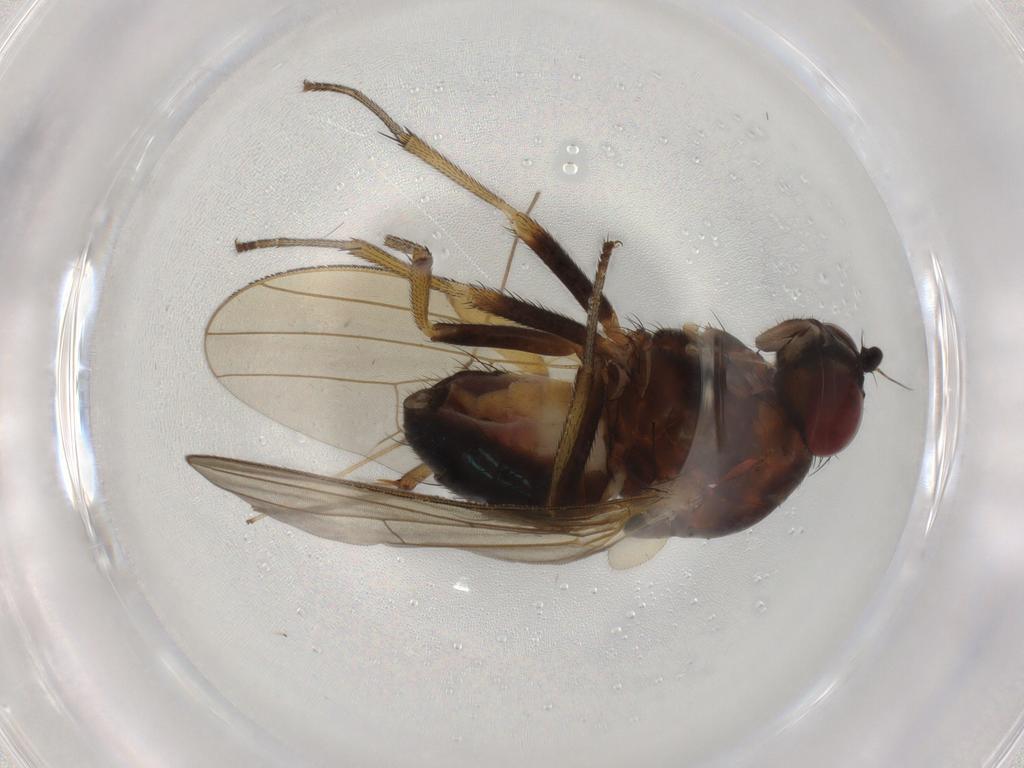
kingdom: Animalia
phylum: Arthropoda
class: Insecta
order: Diptera
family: Lauxaniidae
